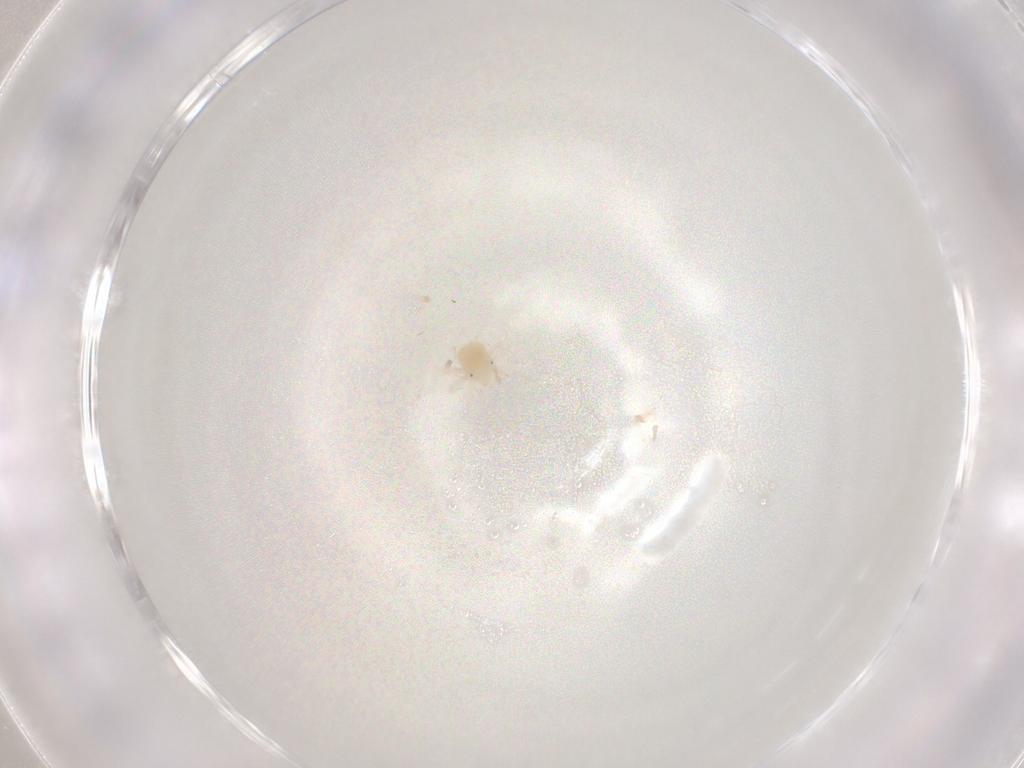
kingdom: Animalia
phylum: Arthropoda
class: Arachnida
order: Trombidiformes
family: Anystidae
